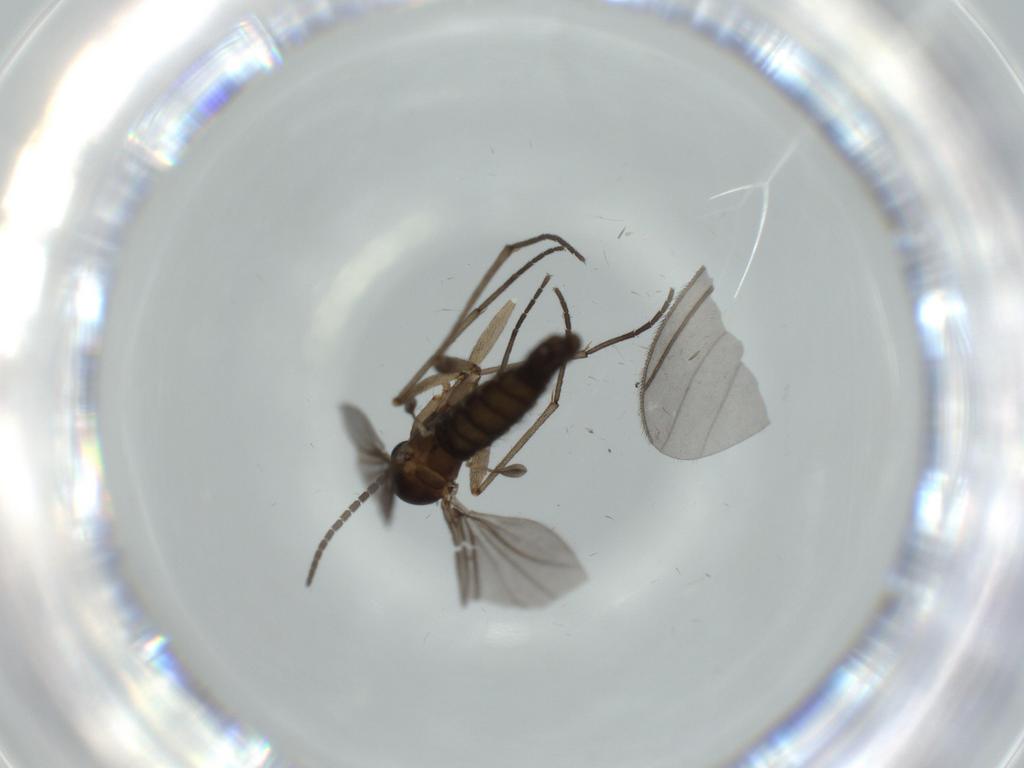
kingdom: Animalia
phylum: Arthropoda
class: Insecta
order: Diptera
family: Sciaridae
